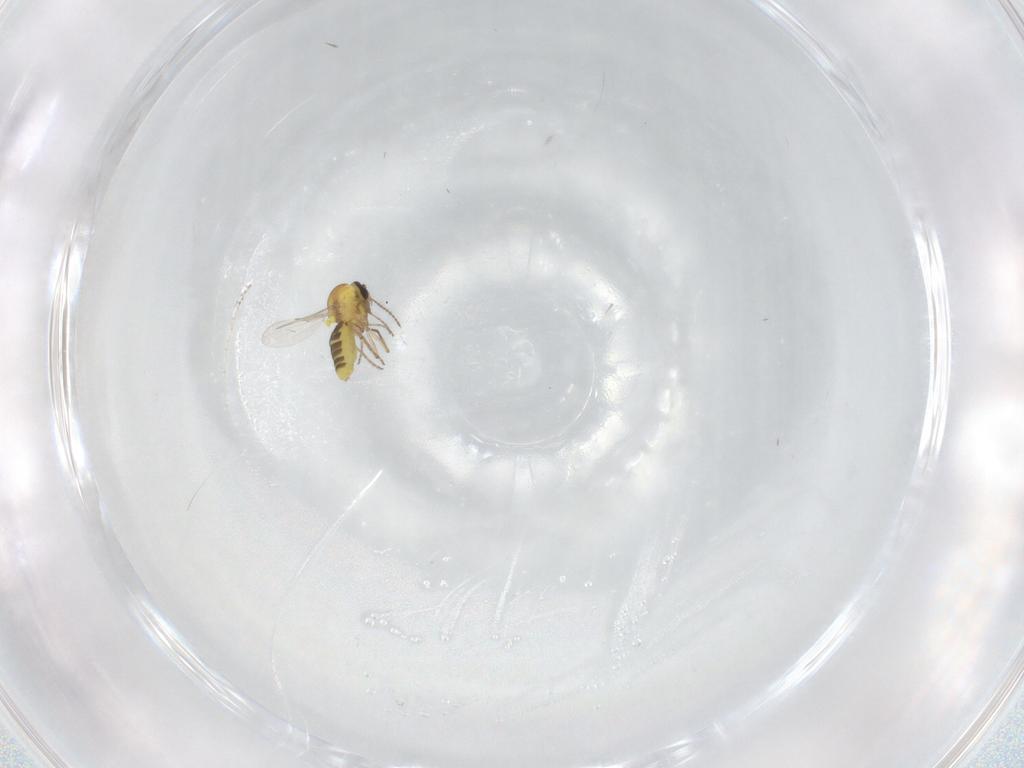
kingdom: Animalia
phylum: Arthropoda
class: Insecta
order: Diptera
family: Ceratopogonidae
